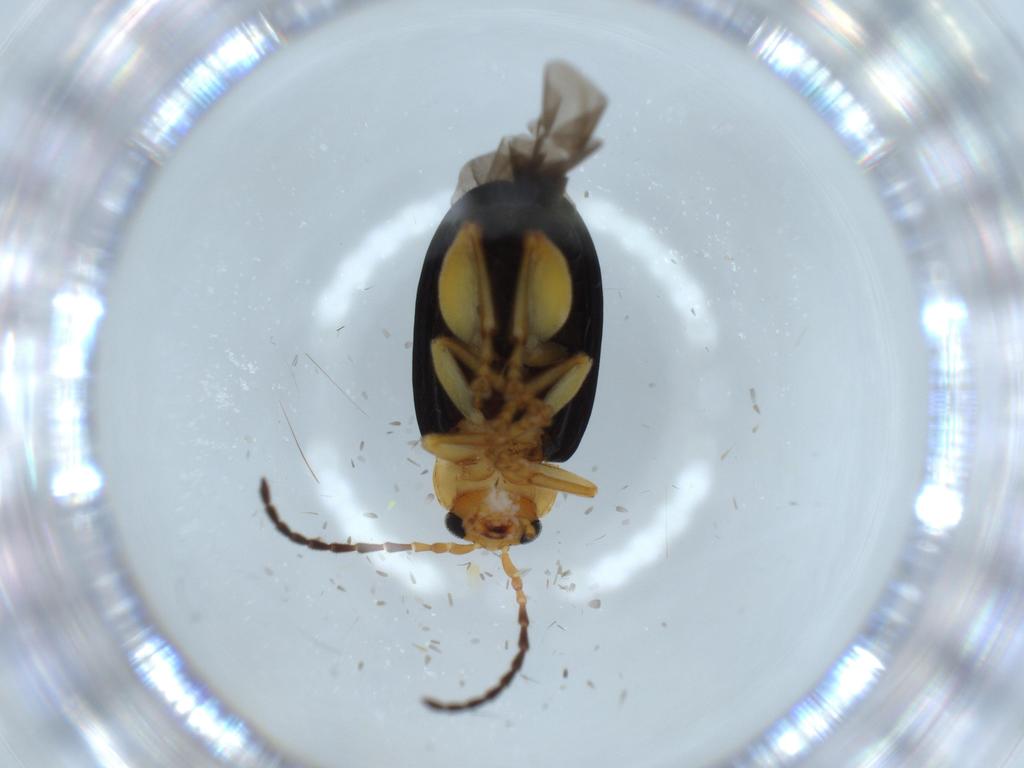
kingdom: Animalia
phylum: Arthropoda
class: Insecta
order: Coleoptera
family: Chrysomelidae
